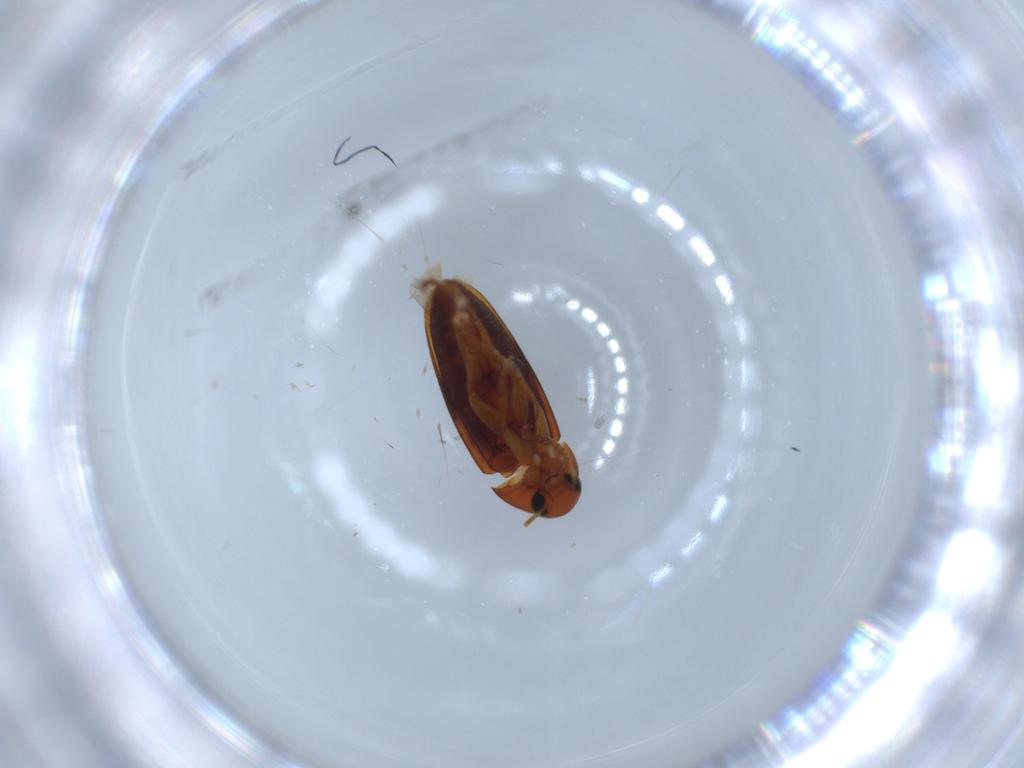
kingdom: Animalia
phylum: Arthropoda
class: Insecta
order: Coleoptera
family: Scraptiidae
